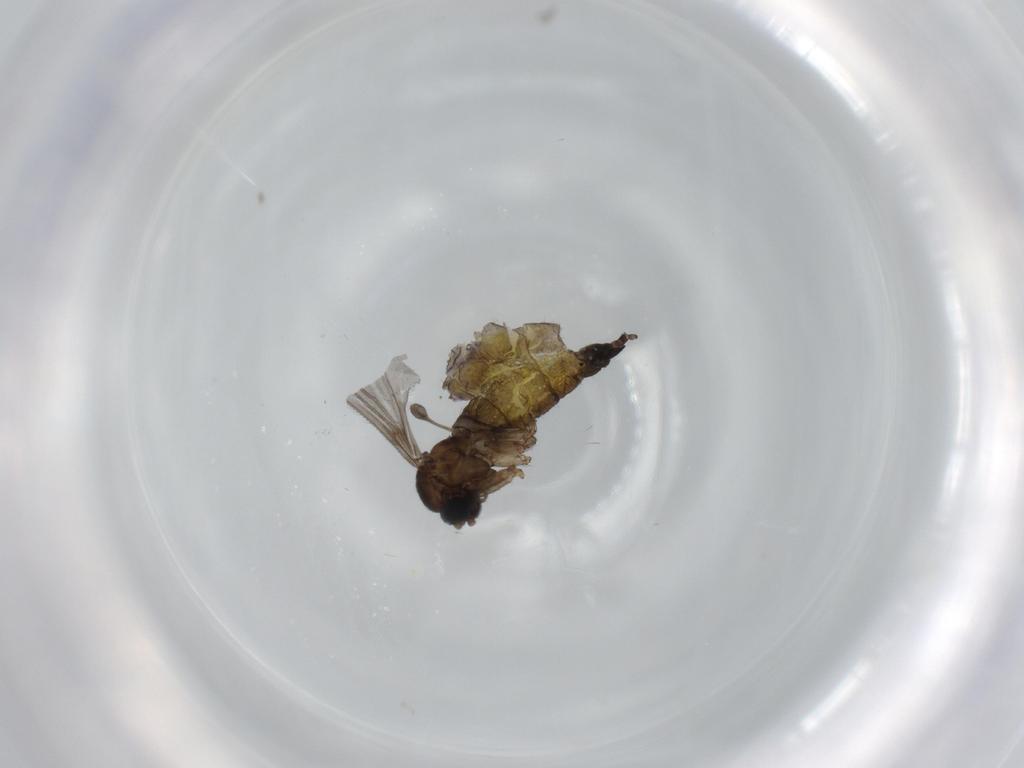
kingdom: Animalia
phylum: Arthropoda
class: Insecta
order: Diptera
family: Sciaridae
